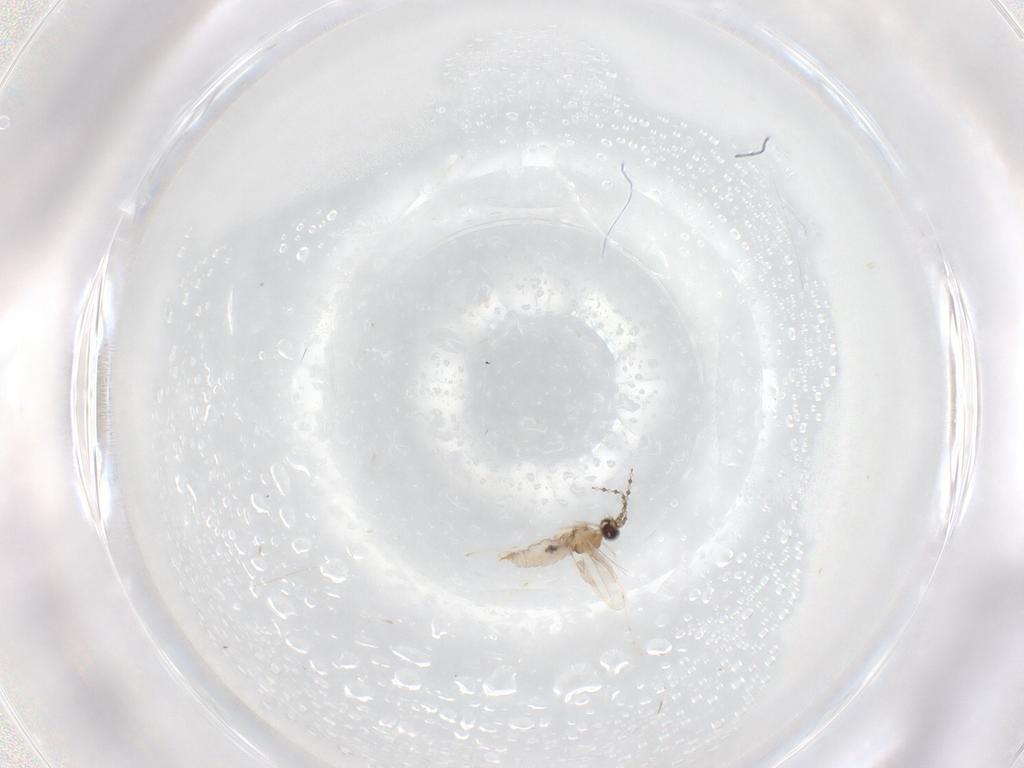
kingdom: Animalia
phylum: Arthropoda
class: Insecta
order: Diptera
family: Cecidomyiidae
